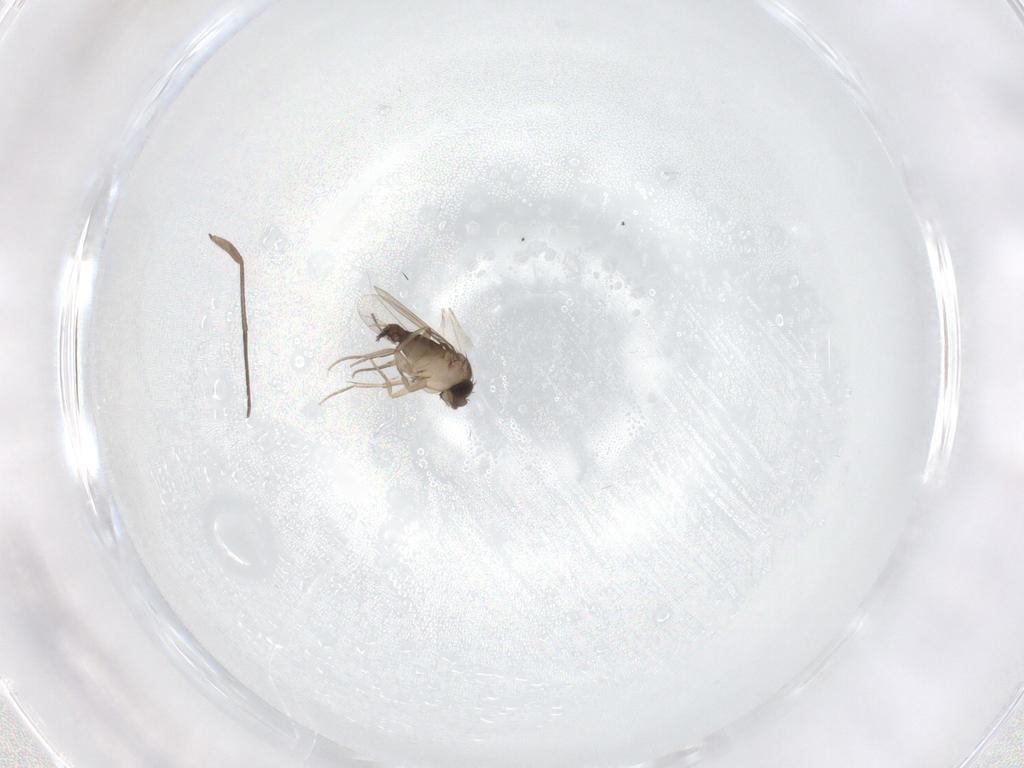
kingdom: Animalia
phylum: Arthropoda
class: Insecta
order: Diptera
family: Phoridae
